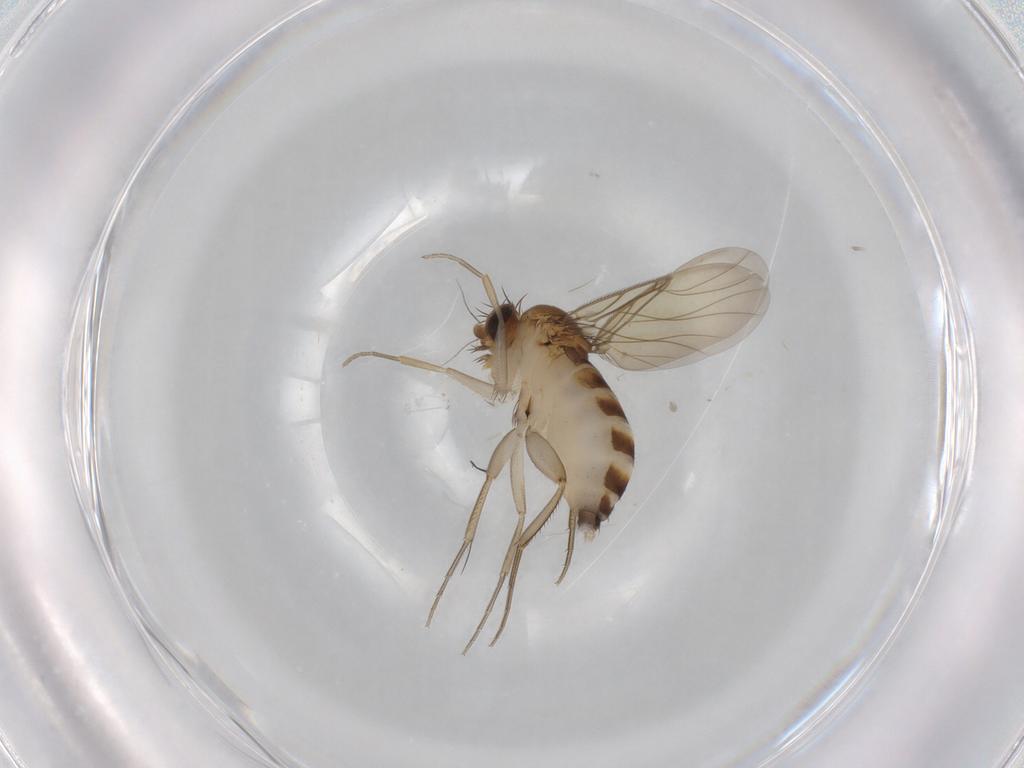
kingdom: Animalia
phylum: Arthropoda
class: Insecta
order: Diptera
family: Phoridae
